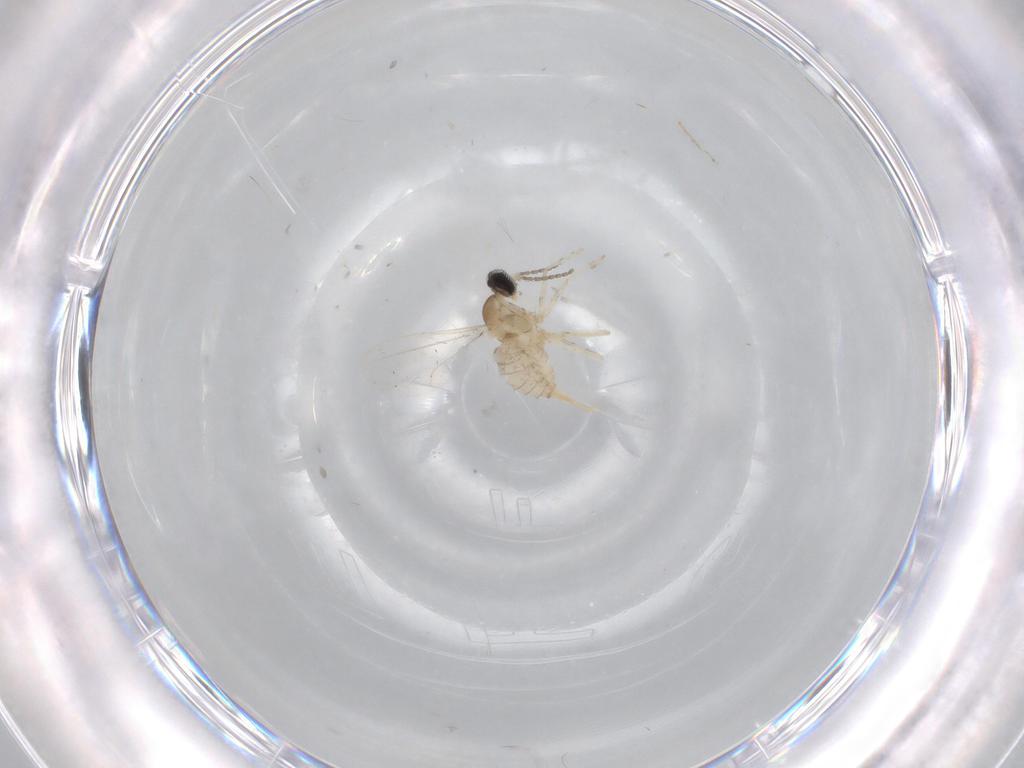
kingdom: Animalia
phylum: Arthropoda
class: Insecta
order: Diptera
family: Cecidomyiidae
